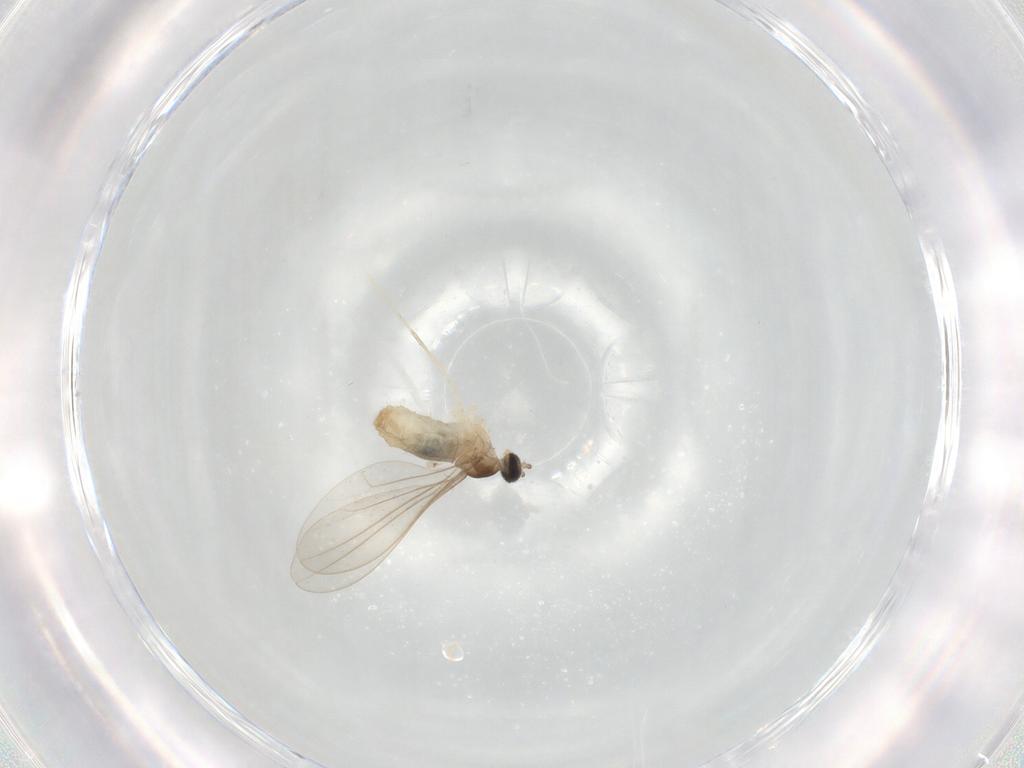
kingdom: Animalia
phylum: Arthropoda
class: Insecta
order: Diptera
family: Cecidomyiidae
